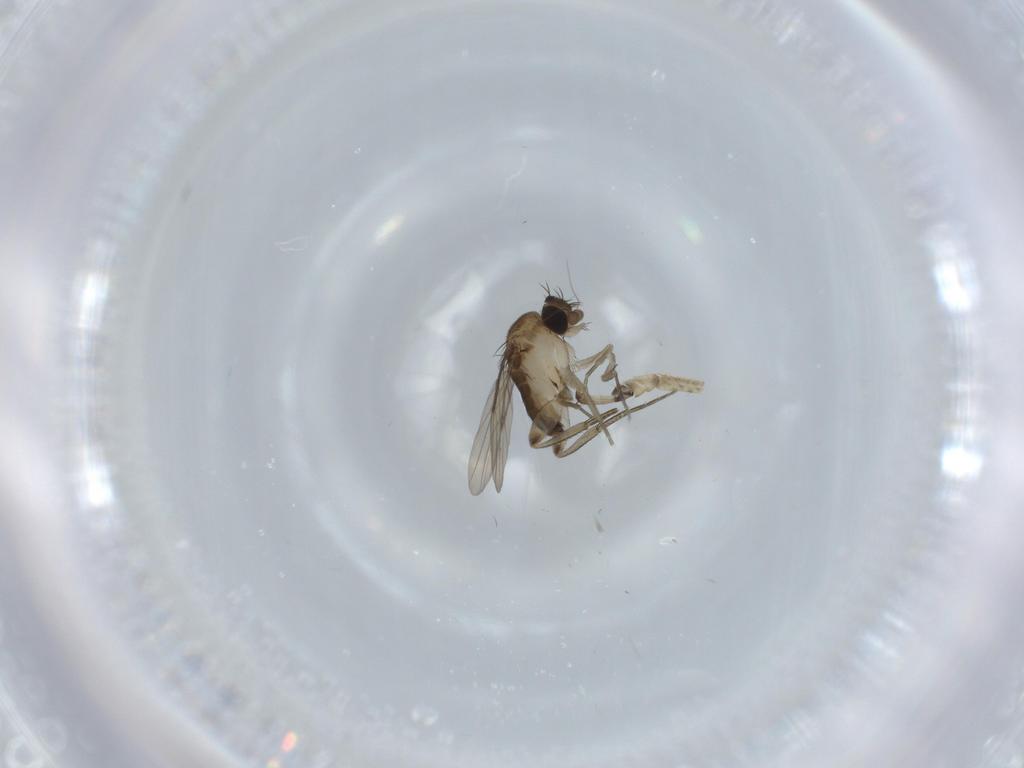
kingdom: Animalia
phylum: Arthropoda
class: Insecta
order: Diptera
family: Phoridae
